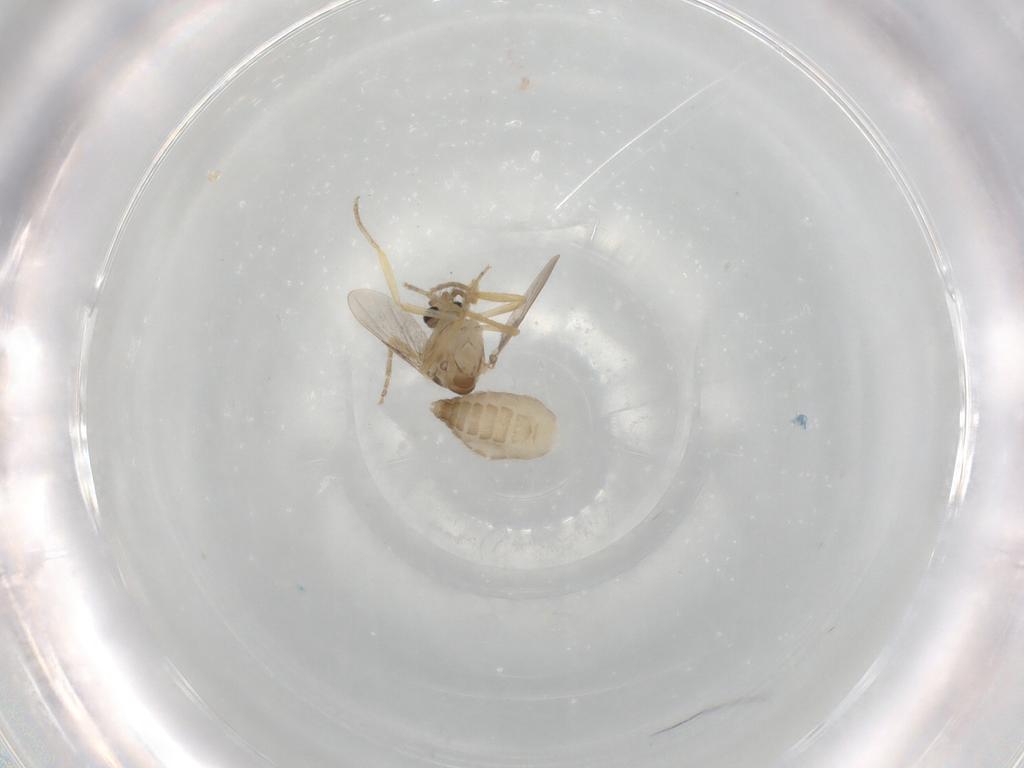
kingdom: Animalia
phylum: Arthropoda
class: Insecta
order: Diptera
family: Ceratopogonidae
